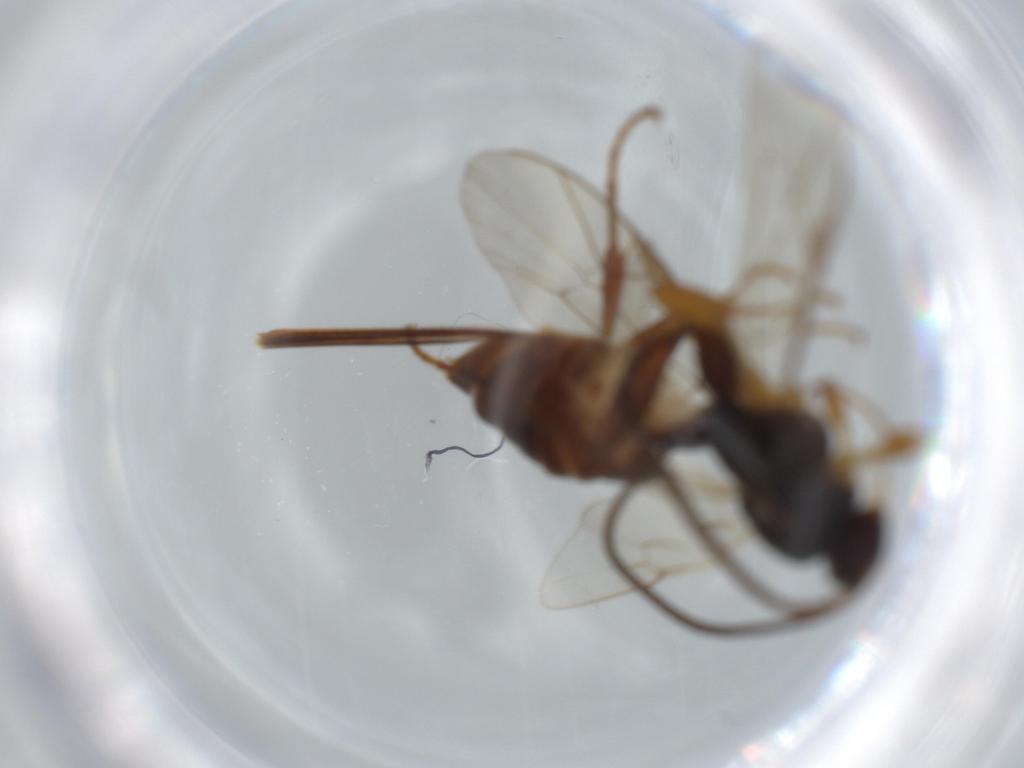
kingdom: Animalia
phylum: Arthropoda
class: Insecta
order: Hymenoptera
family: Ichneumonidae
